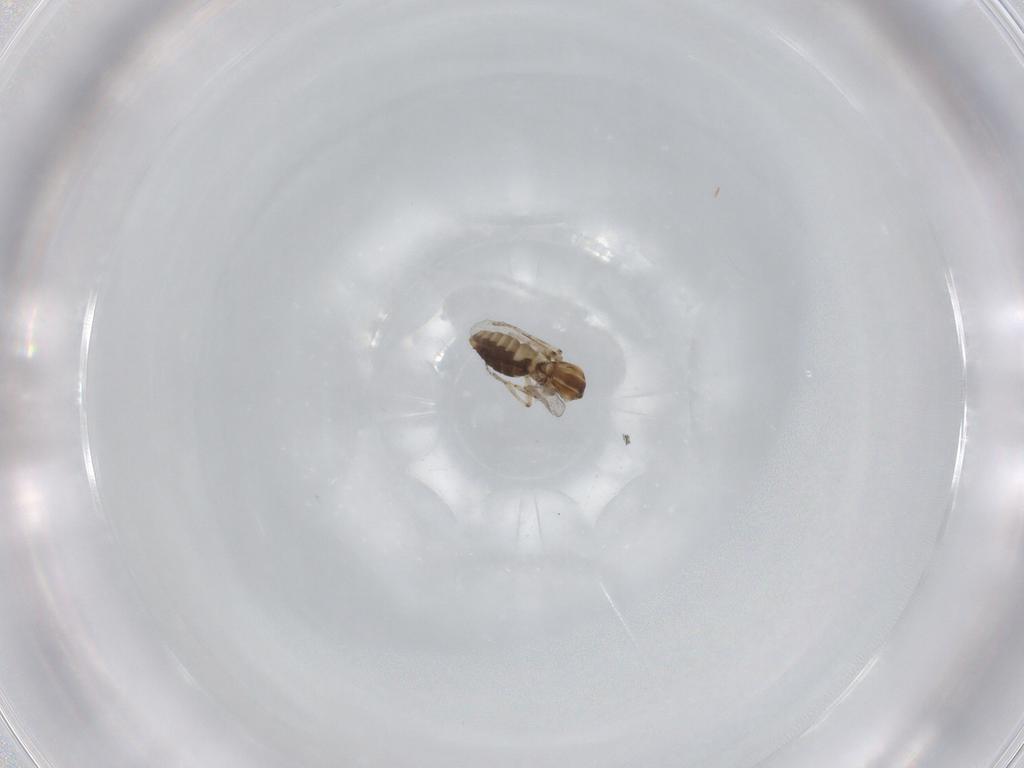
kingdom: Animalia
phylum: Arthropoda
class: Insecta
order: Diptera
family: Ceratopogonidae
